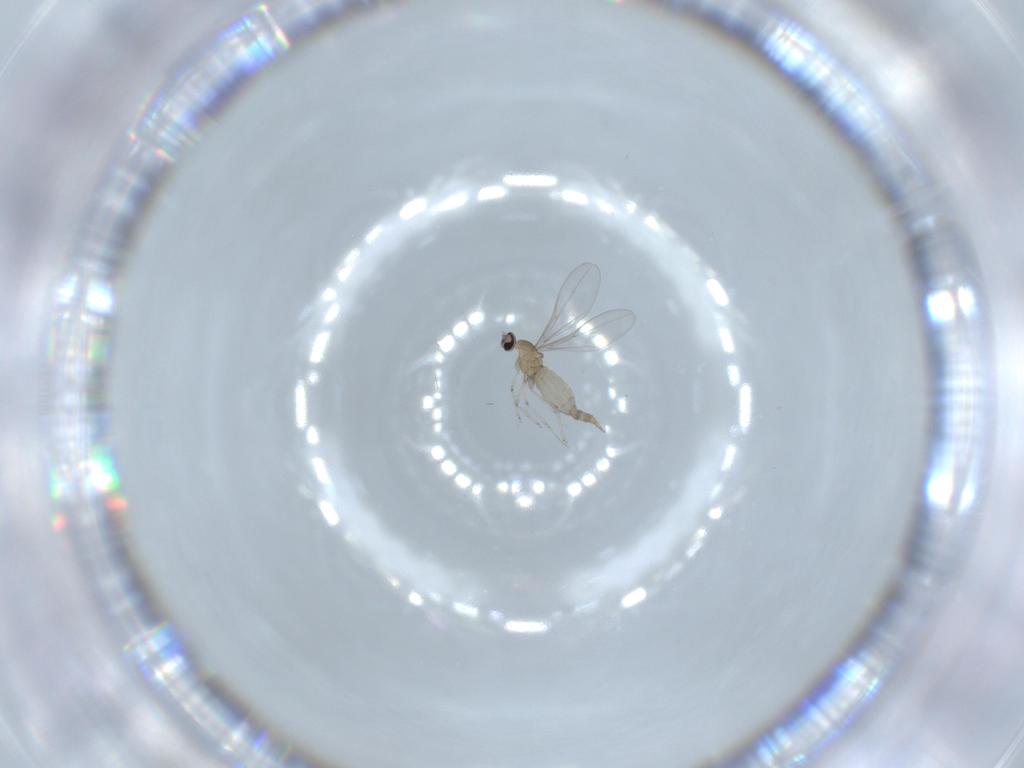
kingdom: Animalia
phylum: Arthropoda
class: Insecta
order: Diptera
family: Cecidomyiidae
